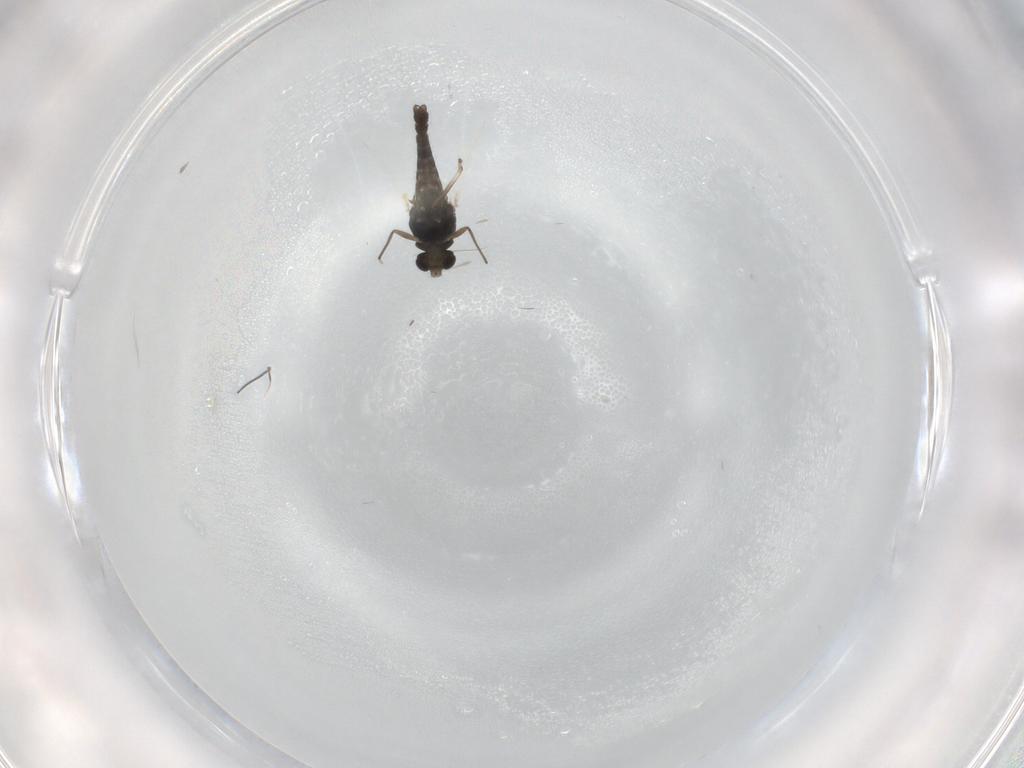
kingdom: Animalia
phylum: Arthropoda
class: Insecta
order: Diptera
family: Chironomidae
